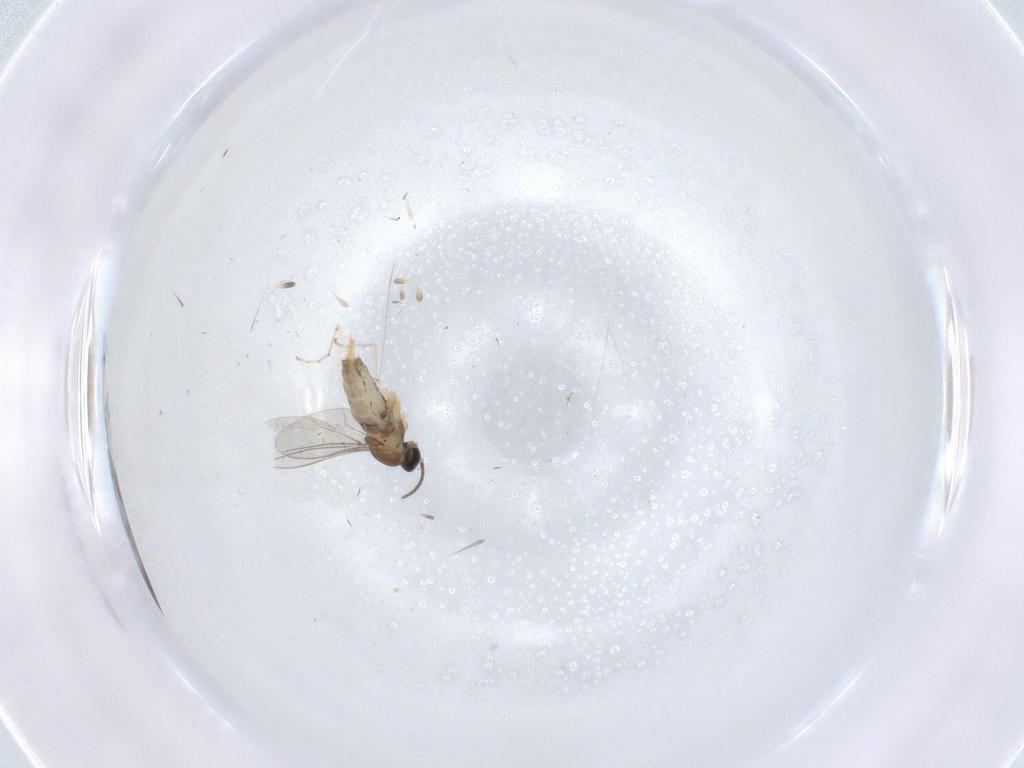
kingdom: Animalia
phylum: Arthropoda
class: Insecta
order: Diptera
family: Cecidomyiidae
